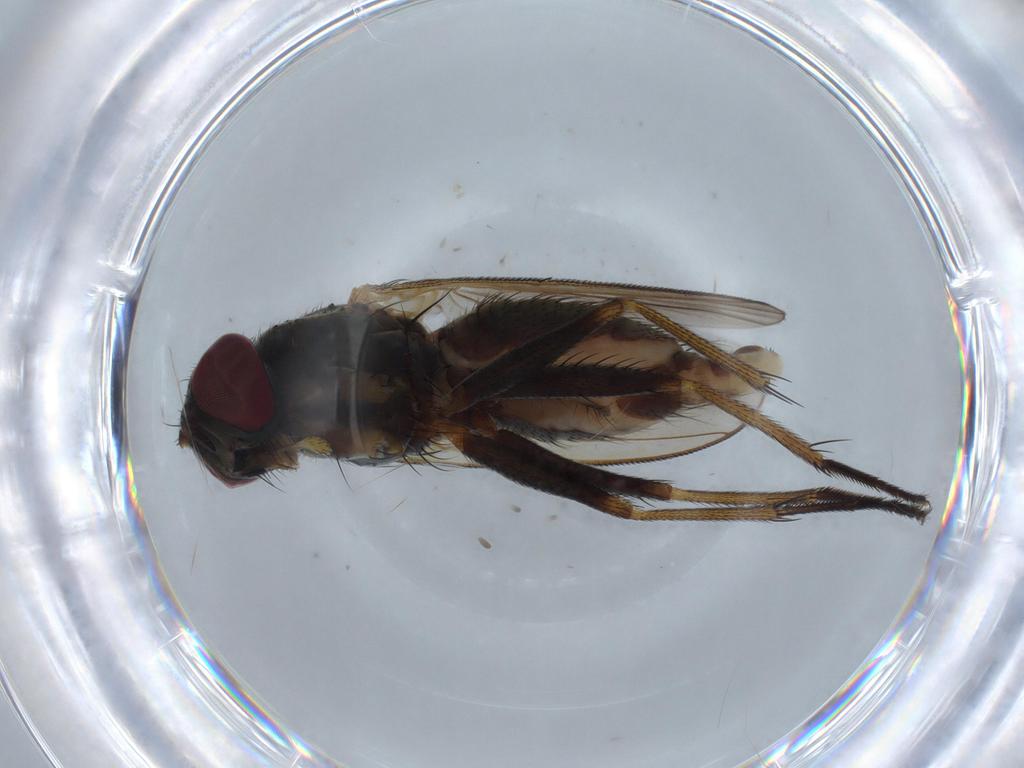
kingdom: Animalia
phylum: Arthropoda
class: Insecta
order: Diptera
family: Muscidae
